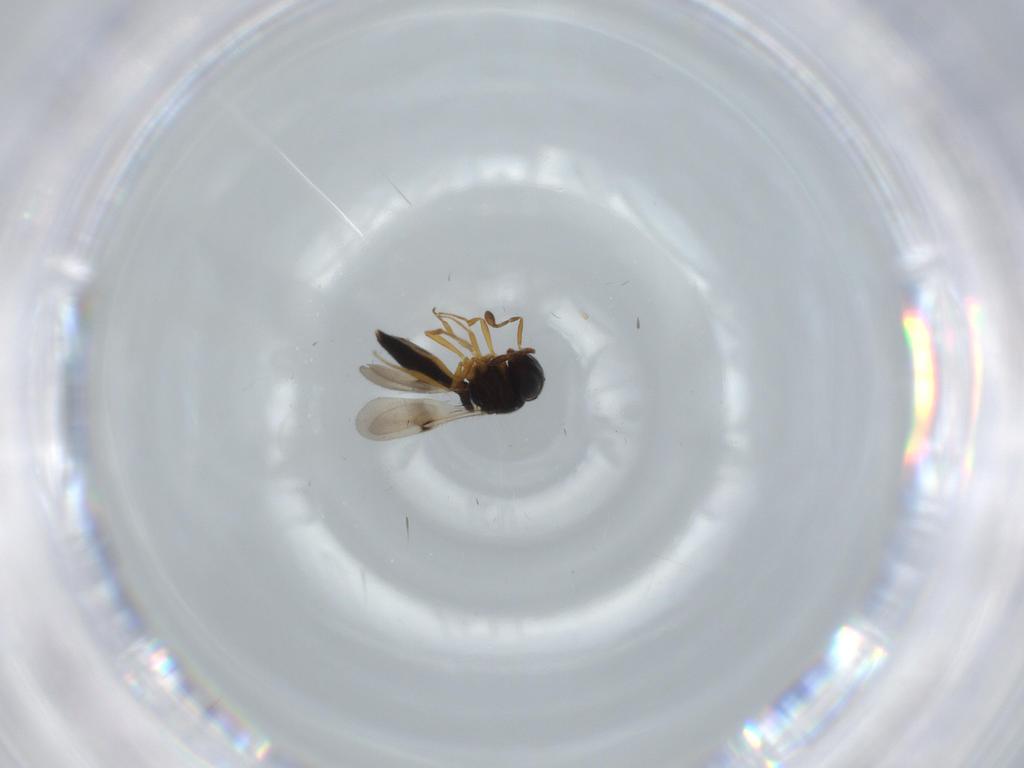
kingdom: Animalia
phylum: Arthropoda
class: Insecta
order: Hymenoptera
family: Scelionidae
